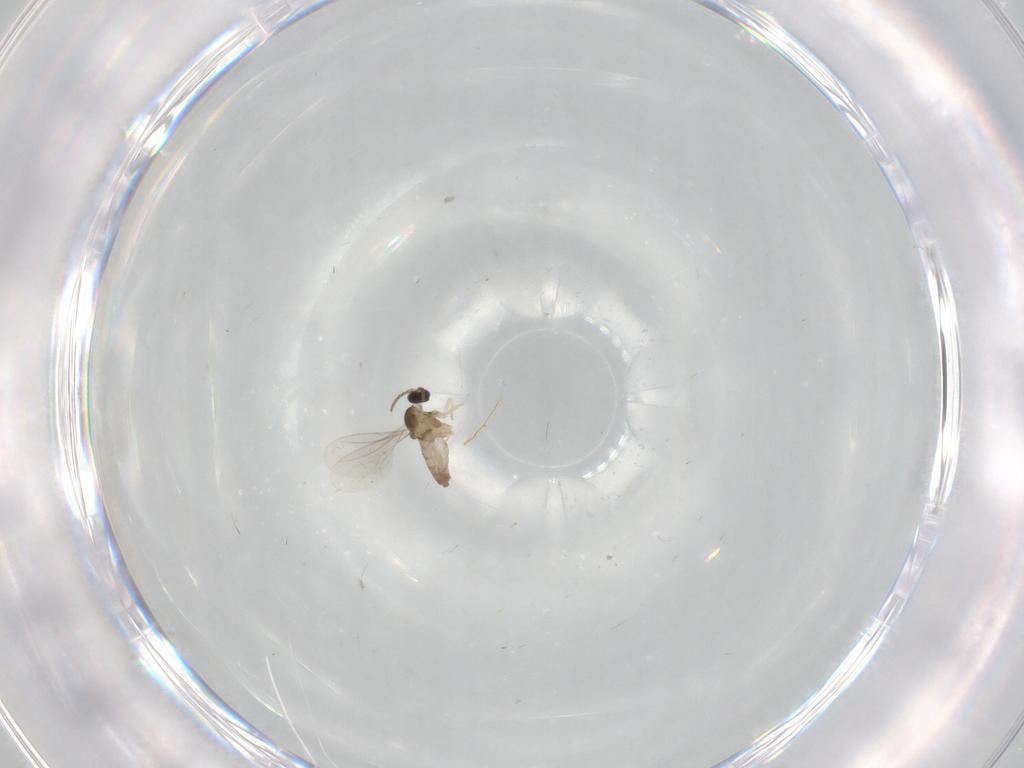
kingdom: Animalia
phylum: Arthropoda
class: Insecta
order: Diptera
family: Cecidomyiidae
